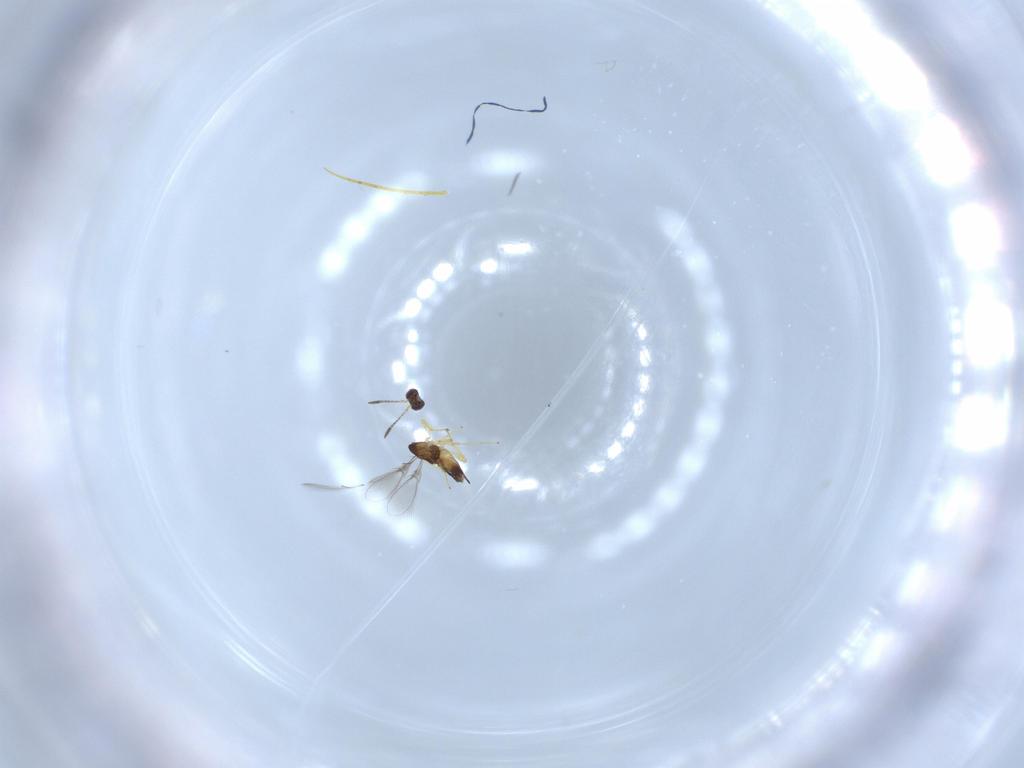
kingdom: Animalia
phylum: Arthropoda
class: Insecta
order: Hymenoptera
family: Mymaridae
